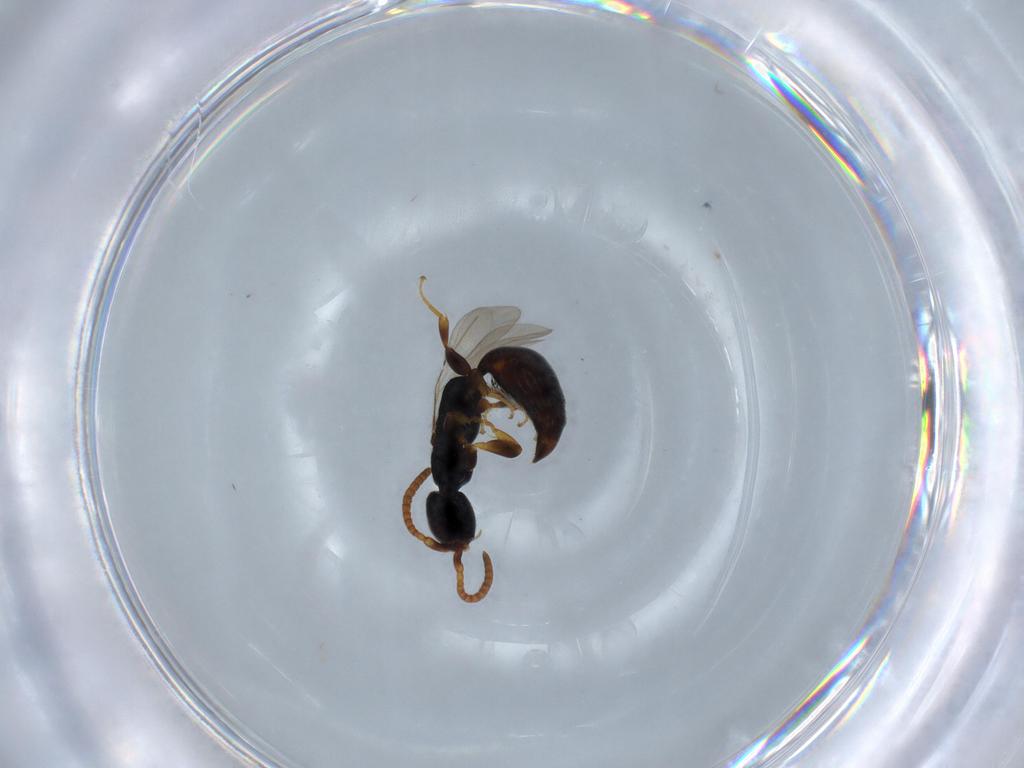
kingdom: Animalia
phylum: Arthropoda
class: Insecta
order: Hymenoptera
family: Bethylidae
